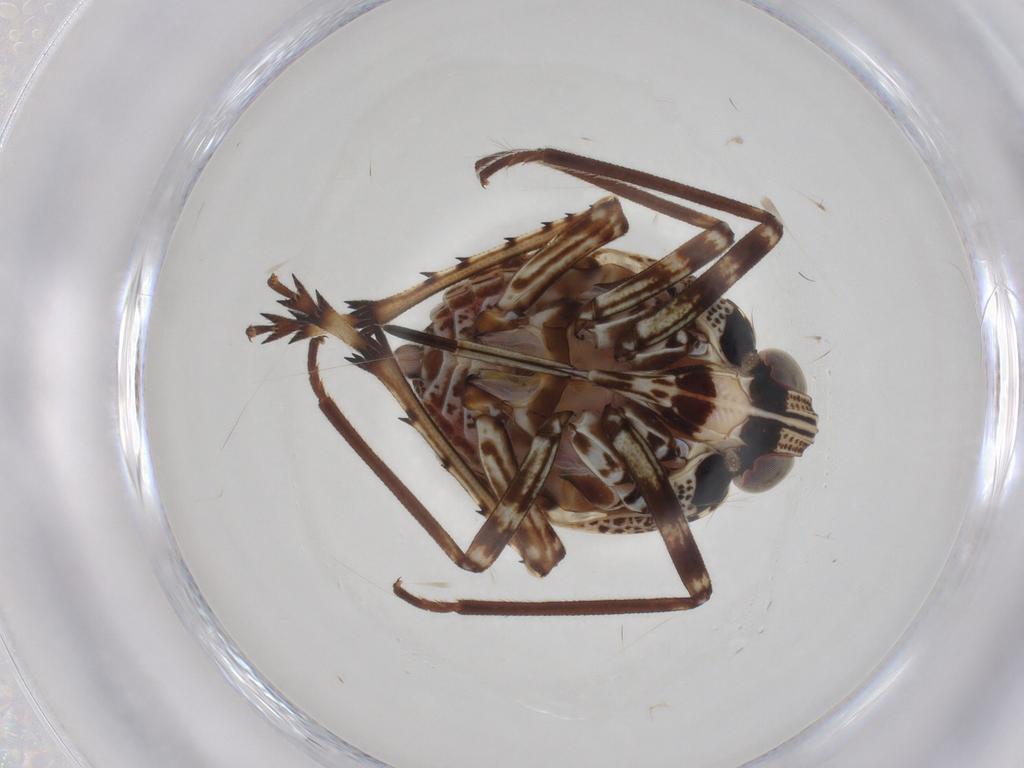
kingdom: Animalia
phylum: Arthropoda
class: Insecta
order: Hemiptera
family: Dictyopharidae
